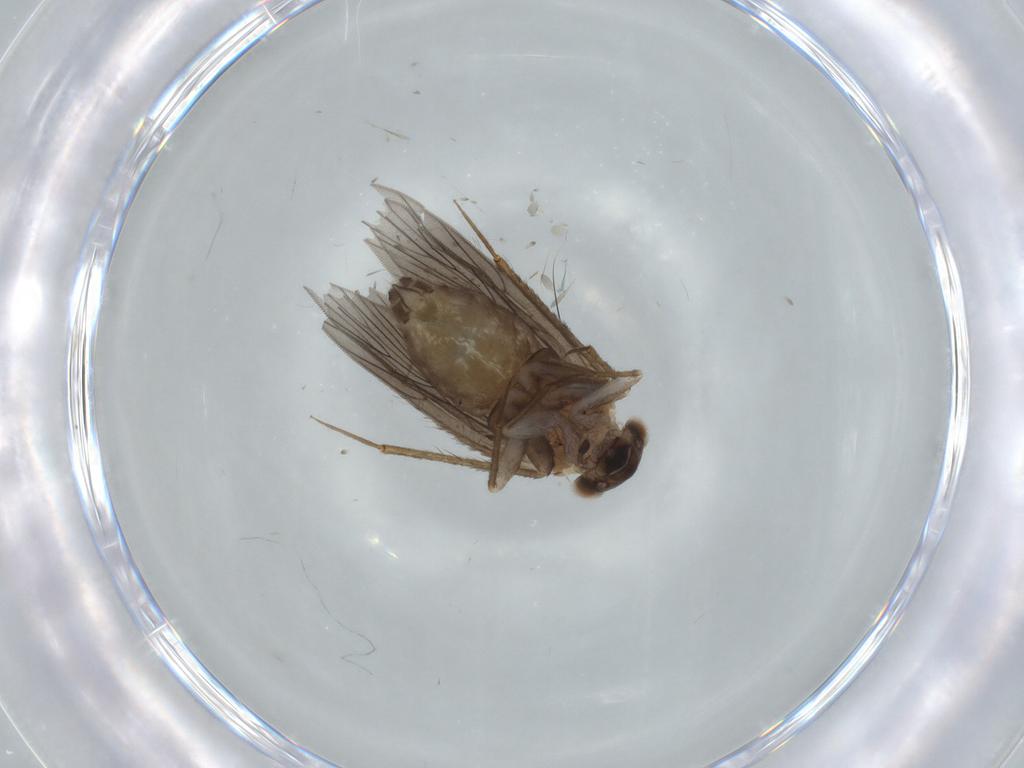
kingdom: Animalia
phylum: Arthropoda
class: Insecta
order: Psocodea
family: Lepidopsocidae
